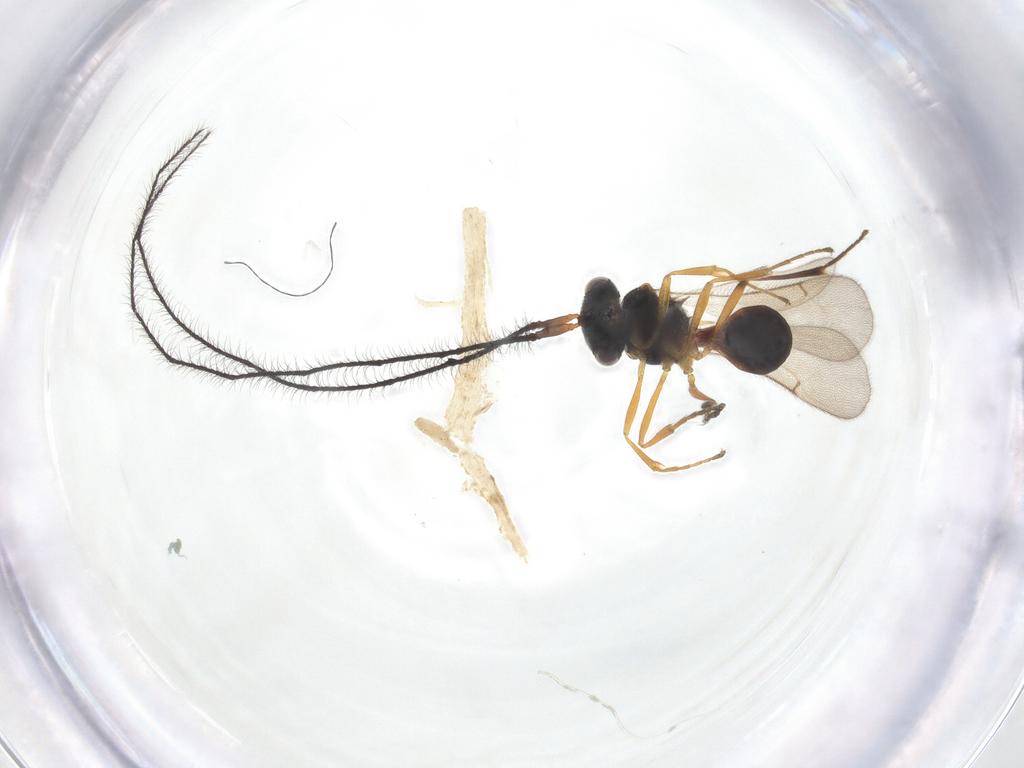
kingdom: Animalia
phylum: Arthropoda
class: Insecta
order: Hymenoptera
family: Scelionidae
